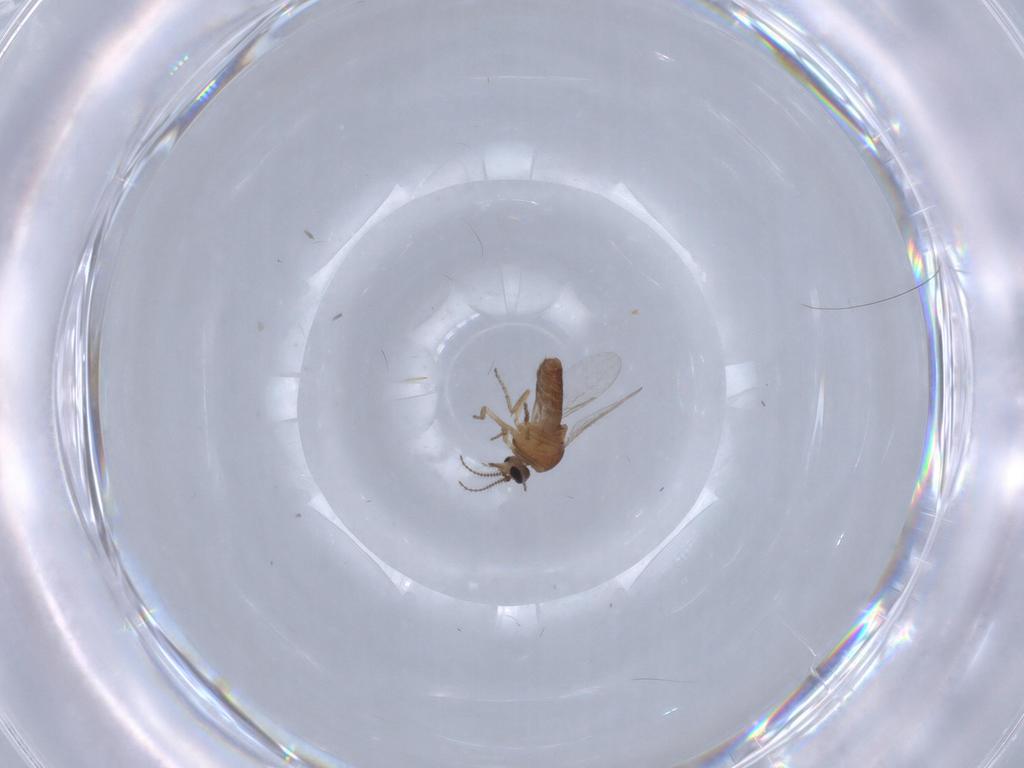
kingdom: Animalia
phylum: Arthropoda
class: Insecta
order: Diptera
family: Ceratopogonidae
